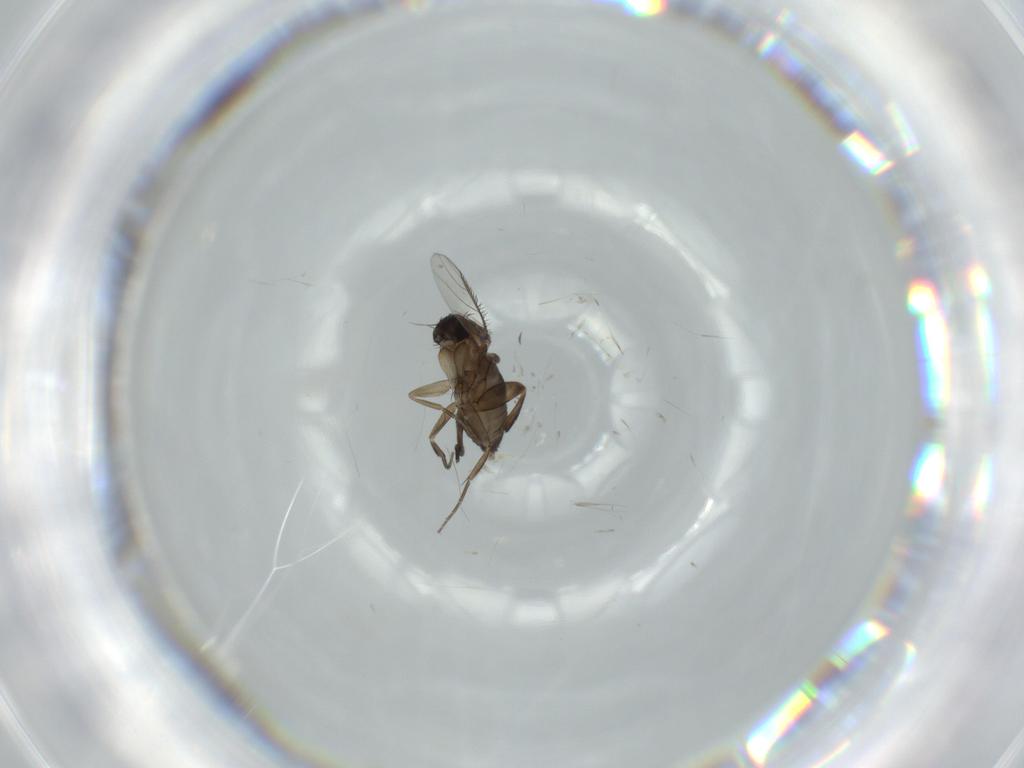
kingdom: Animalia
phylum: Arthropoda
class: Insecta
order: Diptera
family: Phoridae
